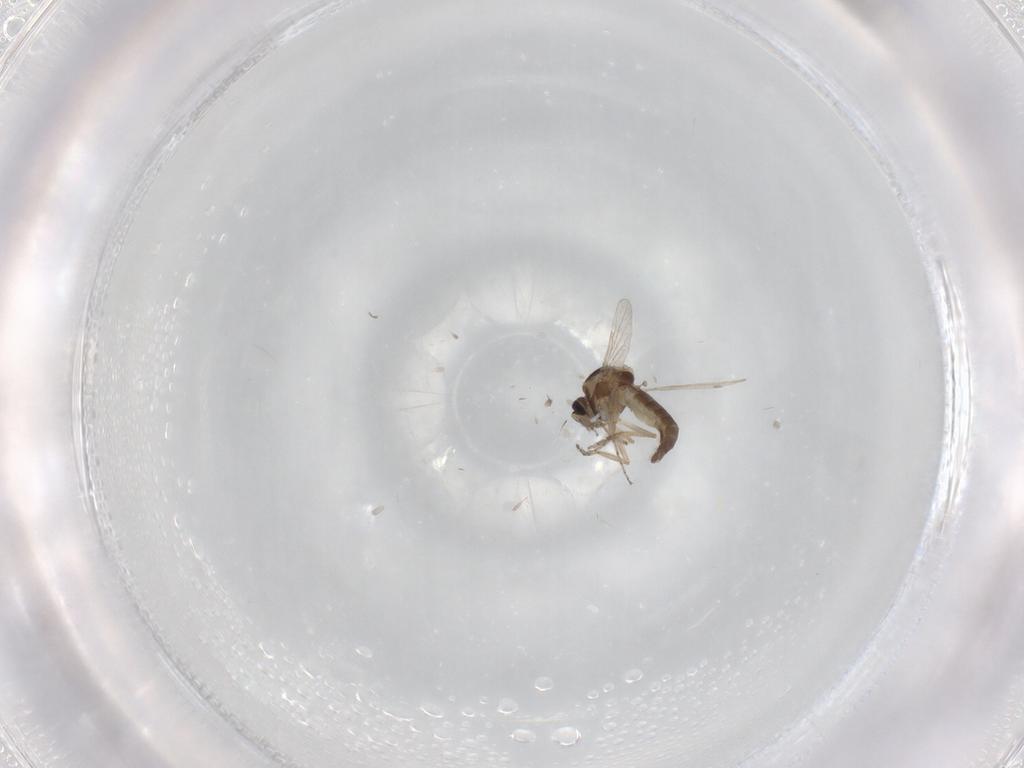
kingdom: Animalia
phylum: Arthropoda
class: Insecta
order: Diptera
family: Ceratopogonidae
